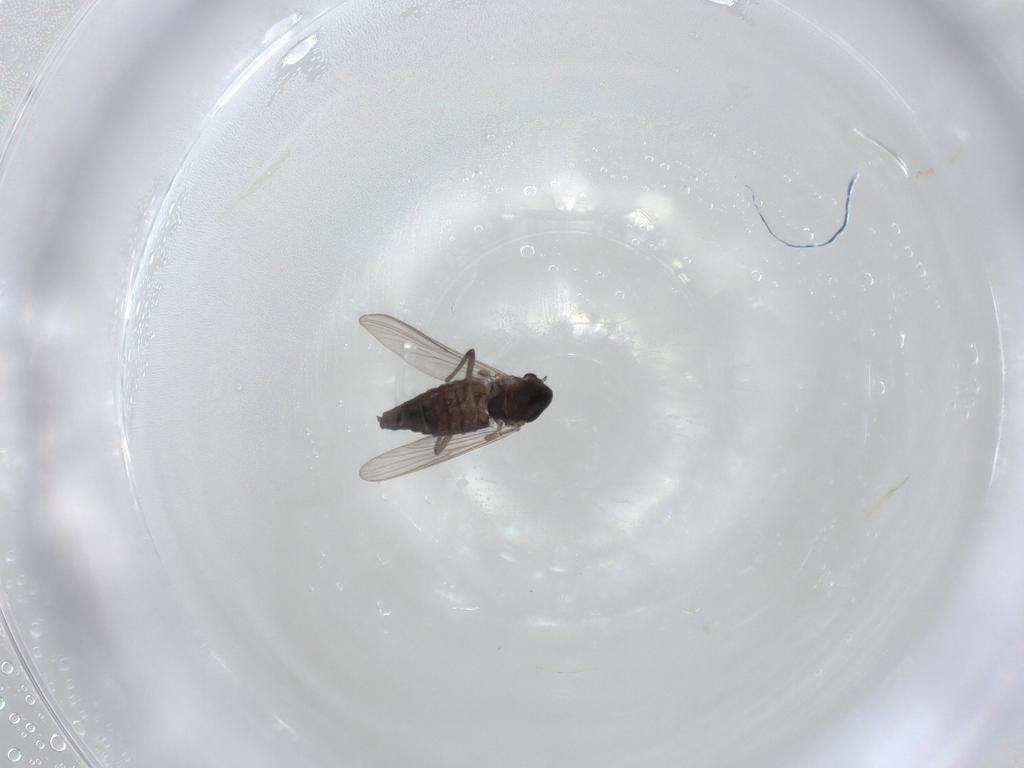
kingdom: Animalia
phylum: Arthropoda
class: Insecta
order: Diptera
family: Chironomidae
